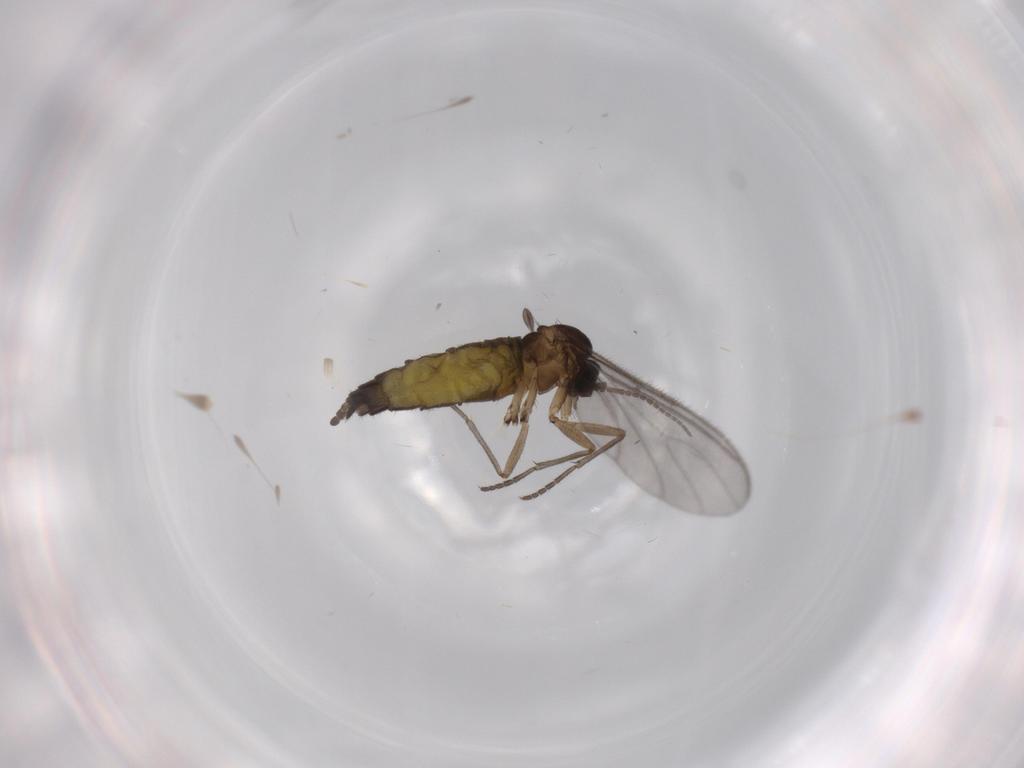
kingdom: Animalia
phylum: Arthropoda
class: Insecta
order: Diptera
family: Sciaridae
